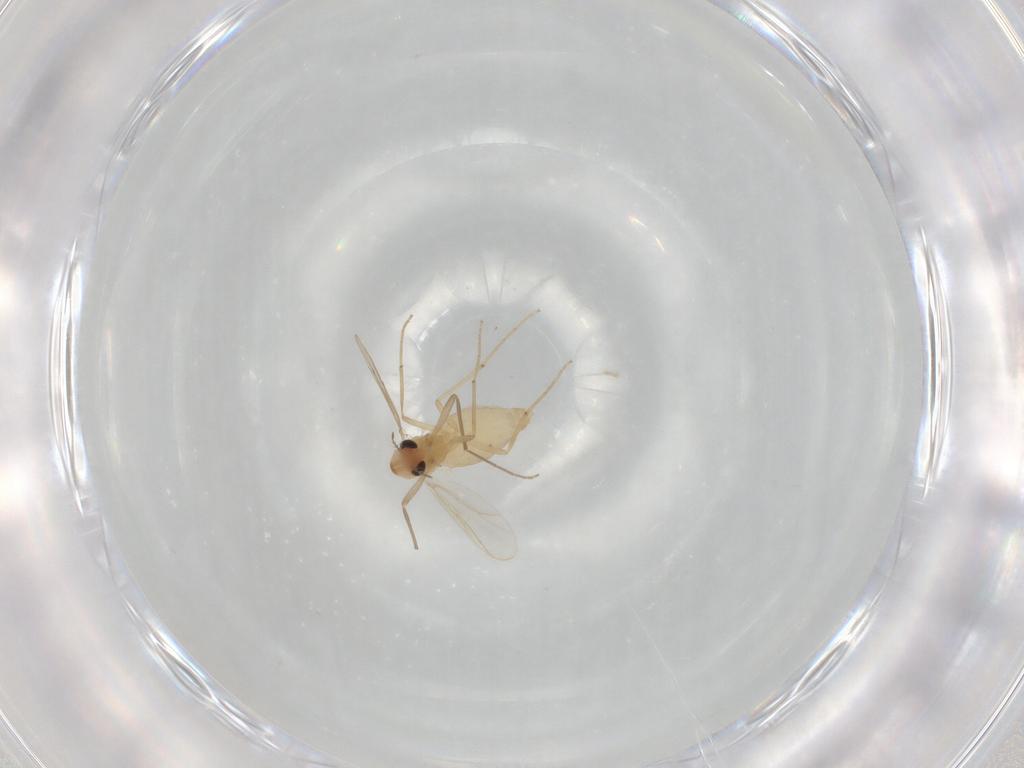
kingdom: Animalia
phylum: Arthropoda
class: Insecta
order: Diptera
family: Chironomidae
